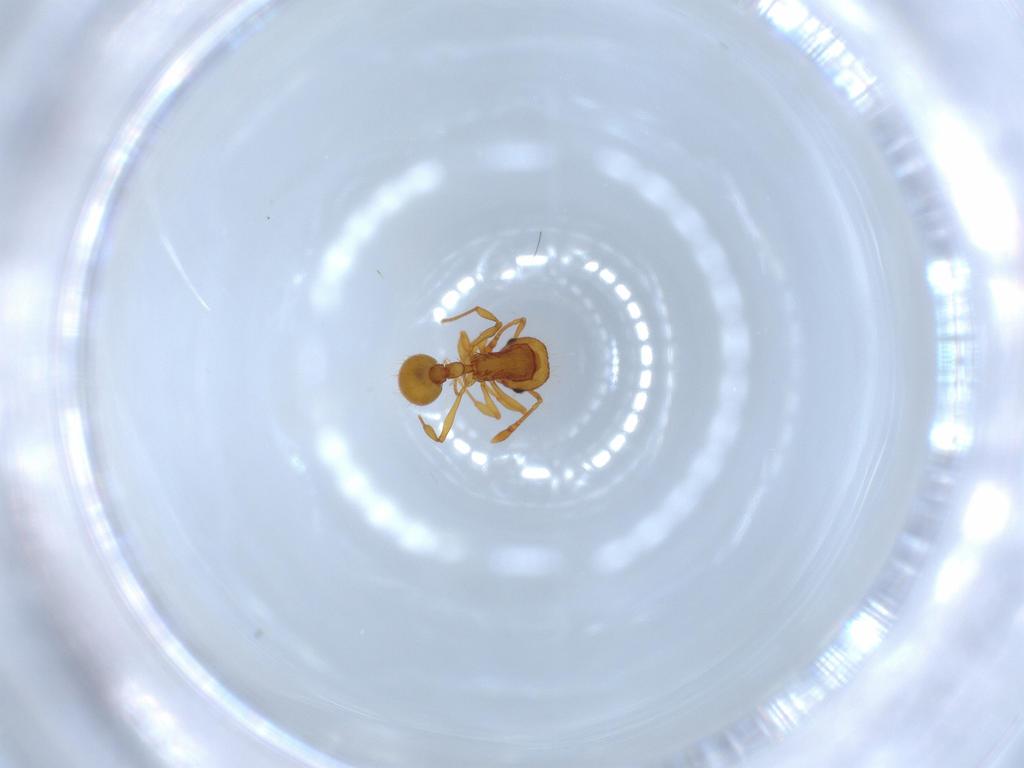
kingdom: Animalia
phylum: Arthropoda
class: Insecta
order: Hymenoptera
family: Formicidae
